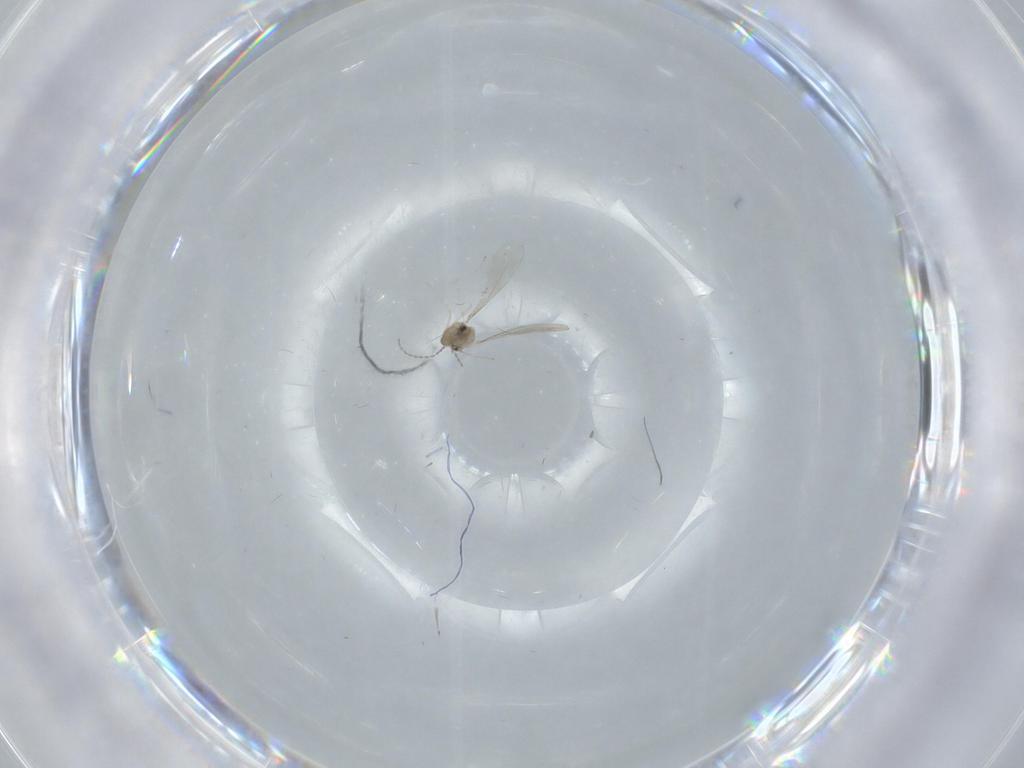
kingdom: Animalia
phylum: Arthropoda
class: Insecta
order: Diptera
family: Cecidomyiidae
